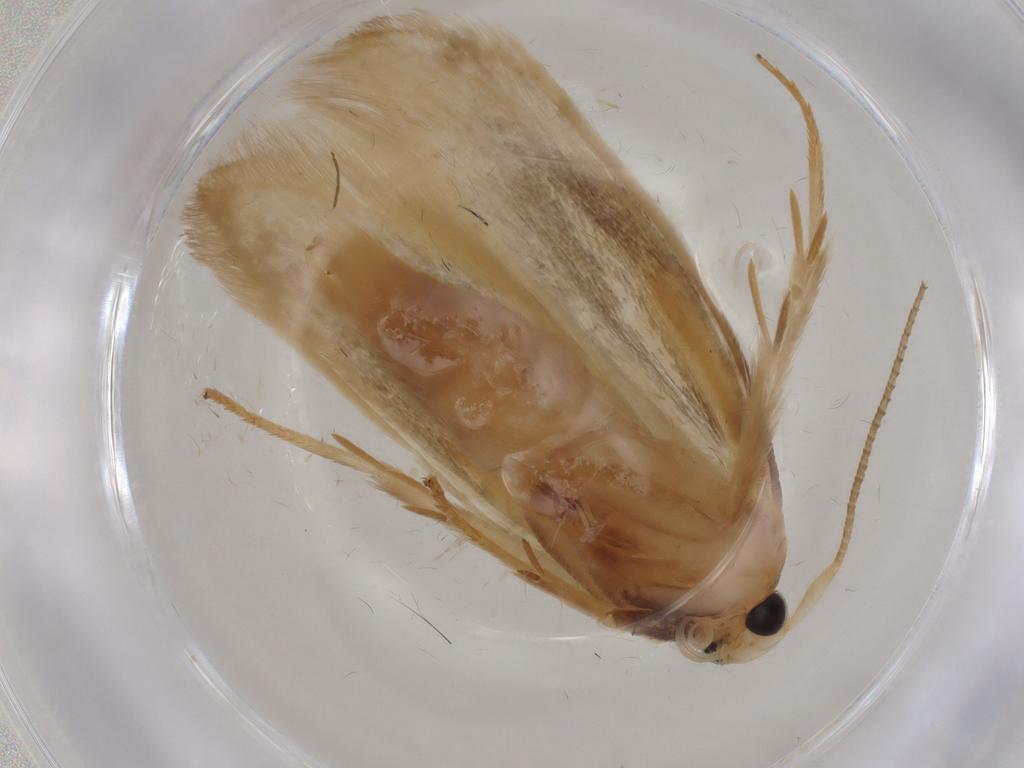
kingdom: Animalia
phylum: Arthropoda
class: Insecta
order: Lepidoptera
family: Geometridae
